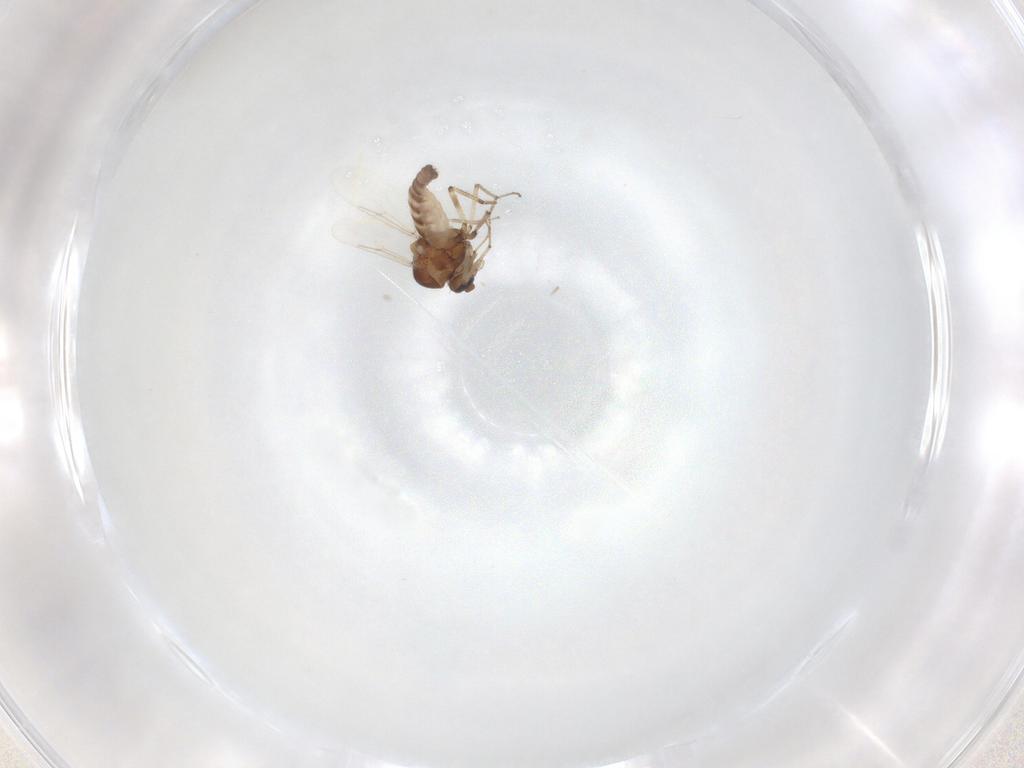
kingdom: Animalia
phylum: Arthropoda
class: Insecta
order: Diptera
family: Ceratopogonidae
